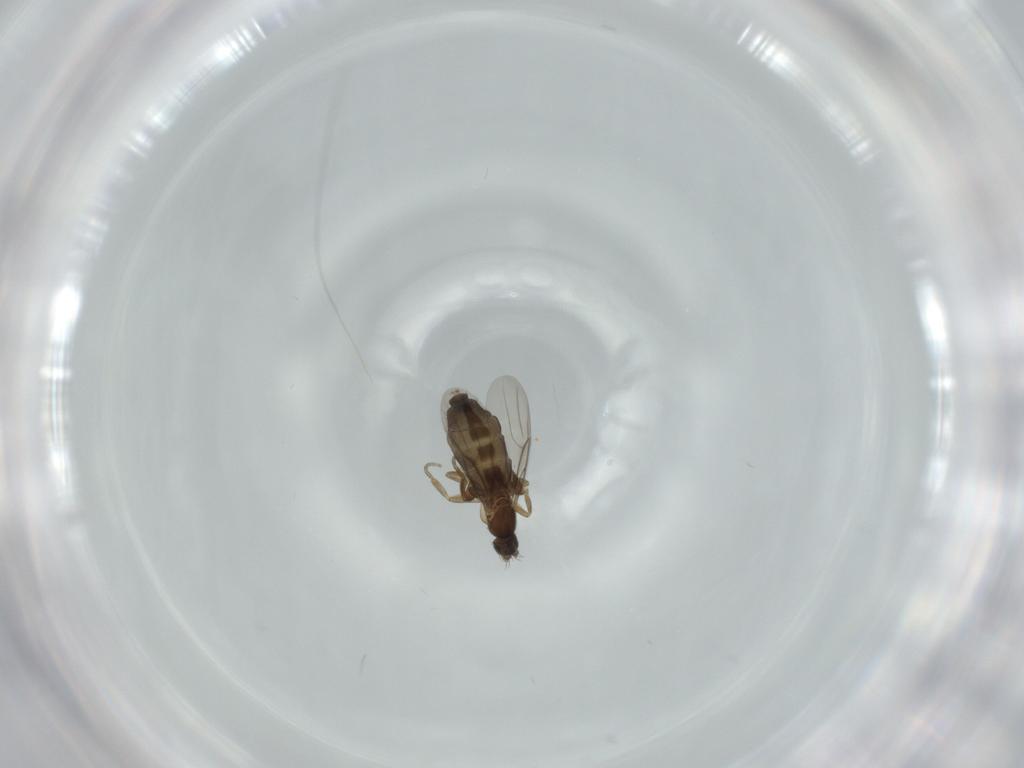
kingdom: Animalia
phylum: Arthropoda
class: Insecta
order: Diptera
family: Phoridae
